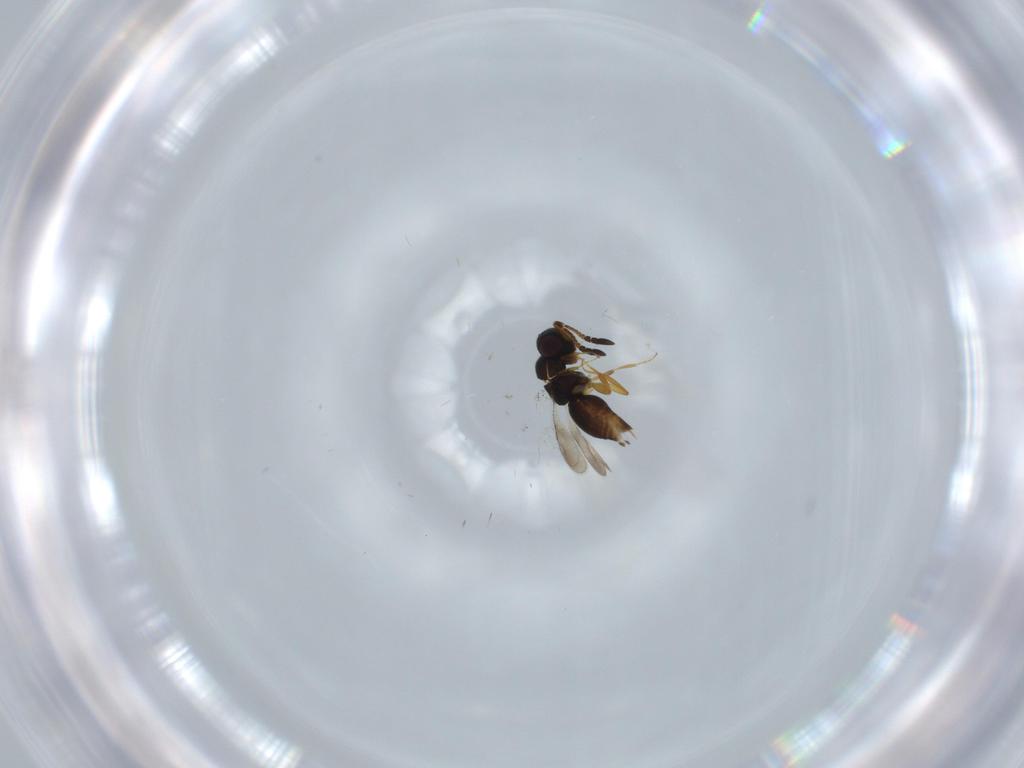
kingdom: Animalia
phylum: Arthropoda
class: Insecta
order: Hymenoptera
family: Ceraphronidae
